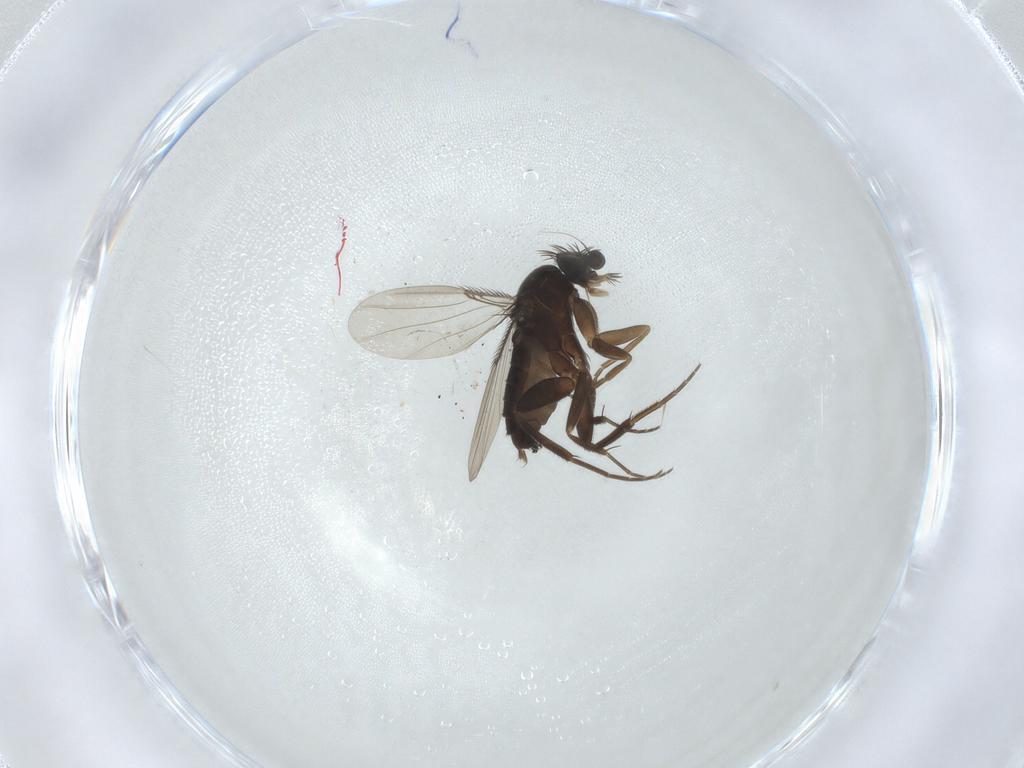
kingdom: Animalia
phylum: Arthropoda
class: Insecta
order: Diptera
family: Phoridae
